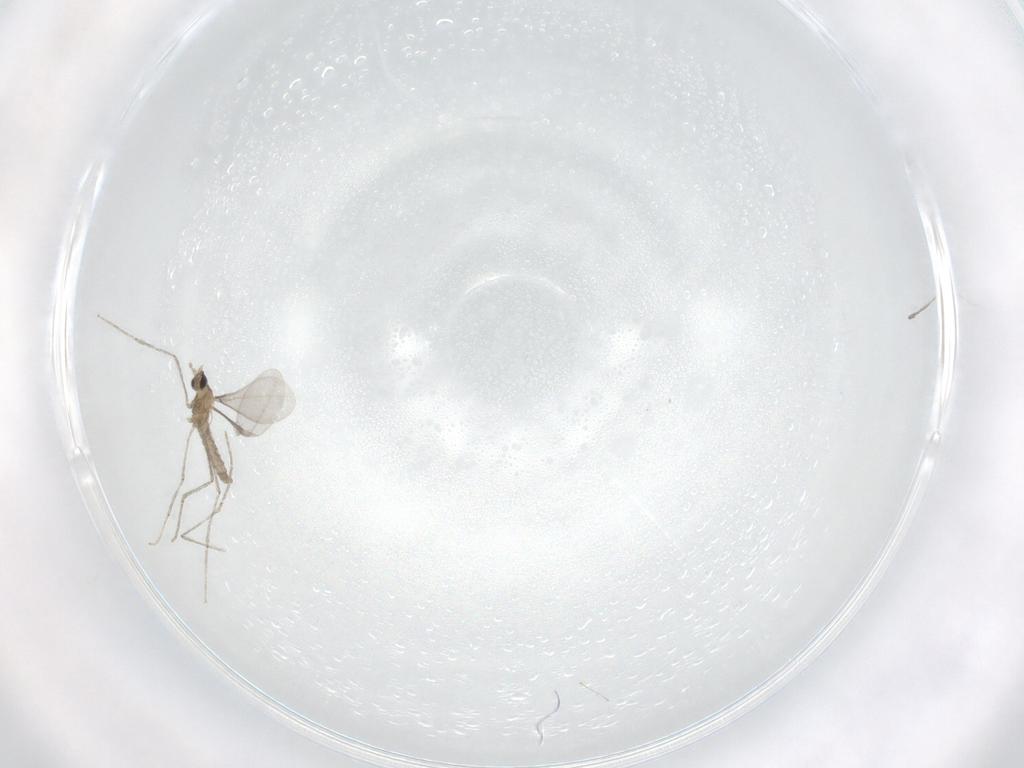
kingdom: Animalia
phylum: Arthropoda
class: Insecta
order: Diptera
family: Cecidomyiidae
